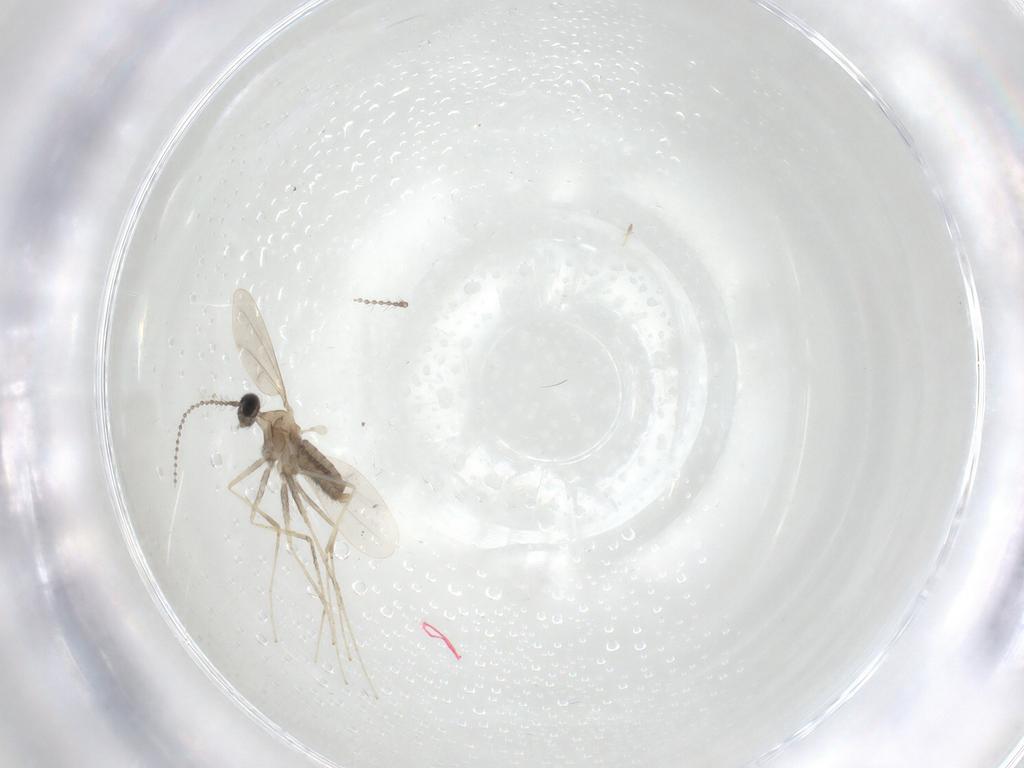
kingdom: Animalia
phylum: Arthropoda
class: Insecta
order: Diptera
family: Cecidomyiidae
